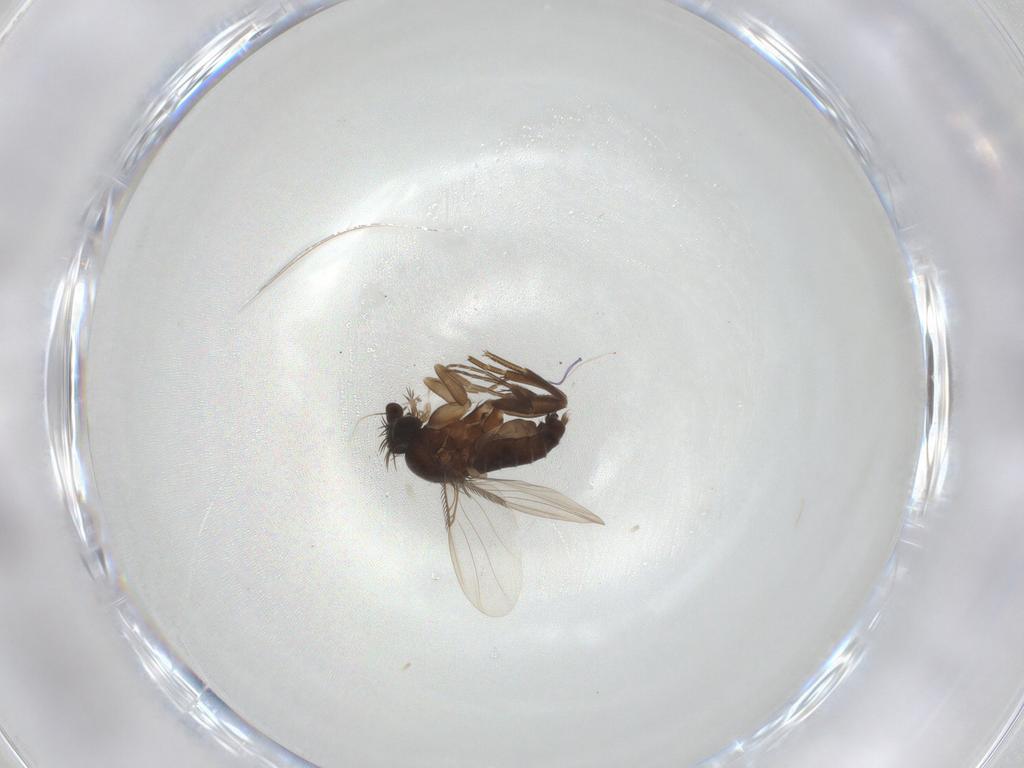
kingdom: Animalia
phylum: Arthropoda
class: Insecta
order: Diptera
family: Phoridae
